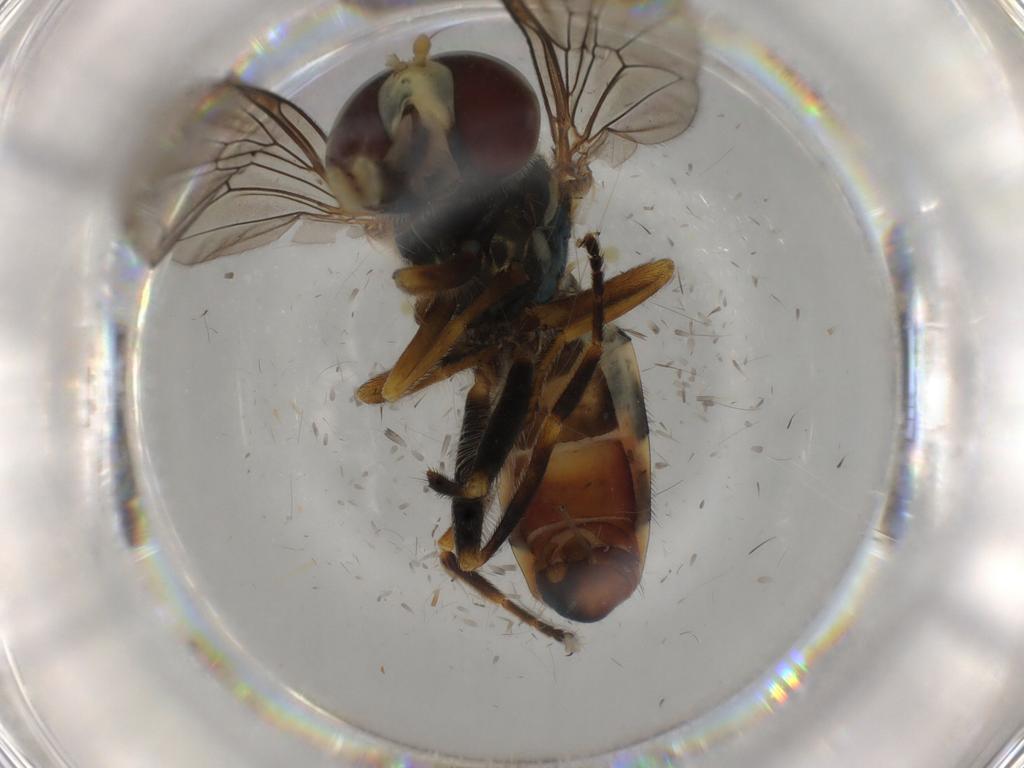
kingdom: Animalia
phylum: Arthropoda
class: Insecta
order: Diptera
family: Syrphidae
